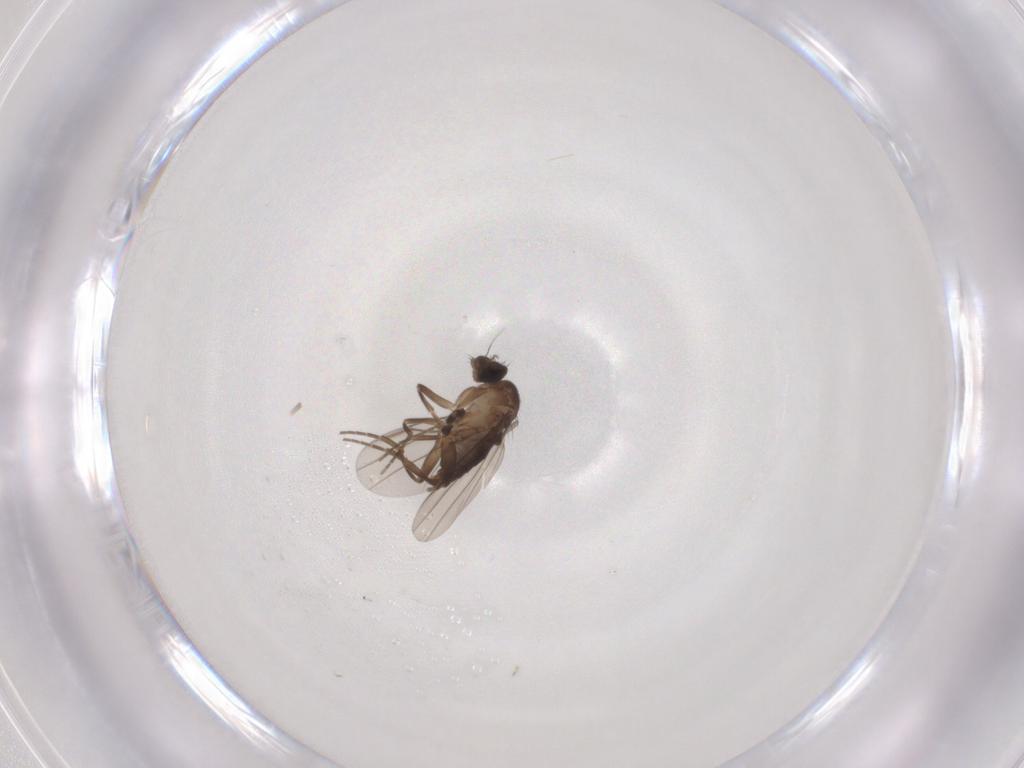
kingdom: Animalia
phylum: Arthropoda
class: Insecta
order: Diptera
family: Phoridae
